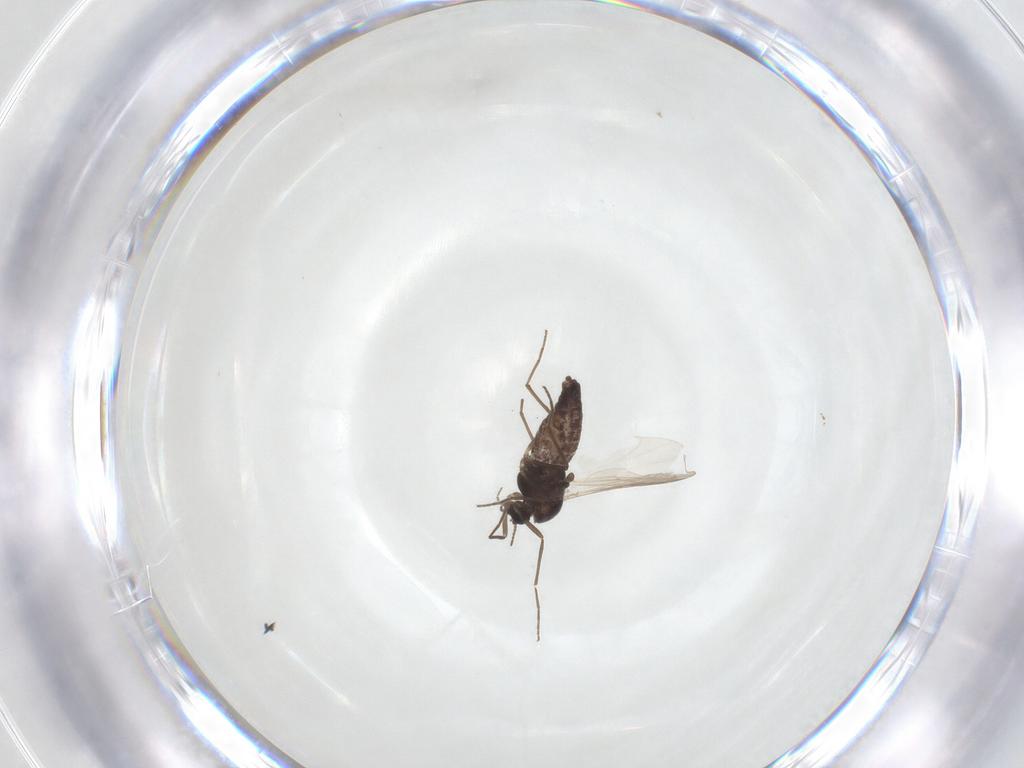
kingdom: Animalia
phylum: Arthropoda
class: Insecta
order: Diptera
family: Chironomidae
